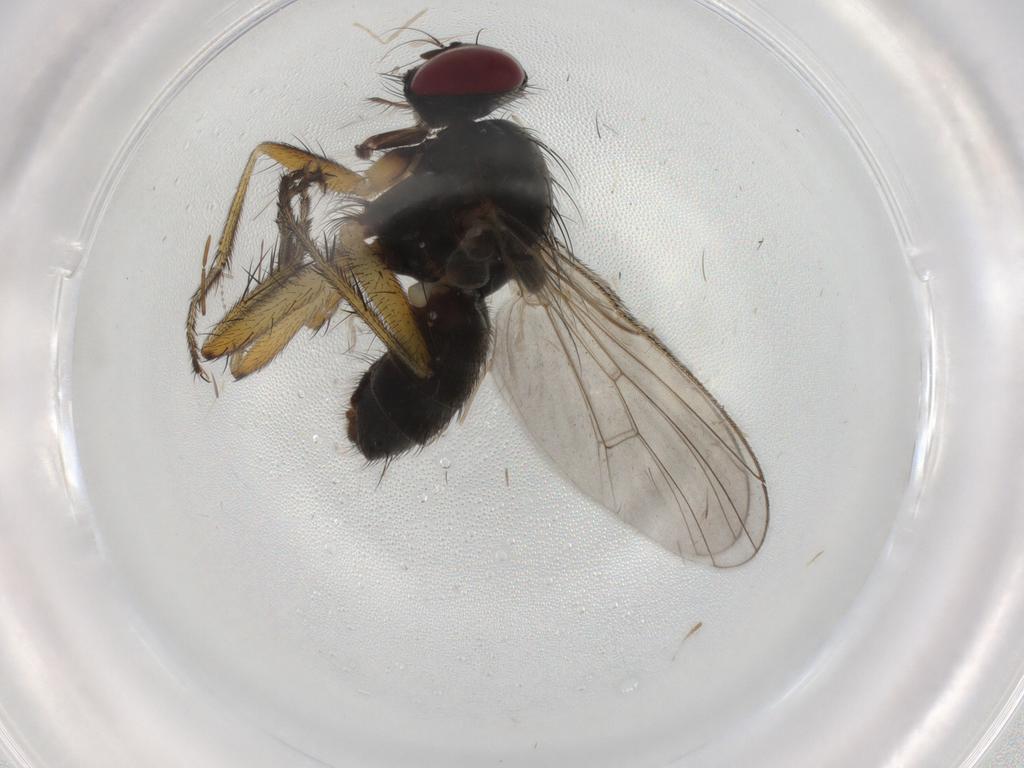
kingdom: Animalia
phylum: Arthropoda
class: Insecta
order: Diptera
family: Muscidae
